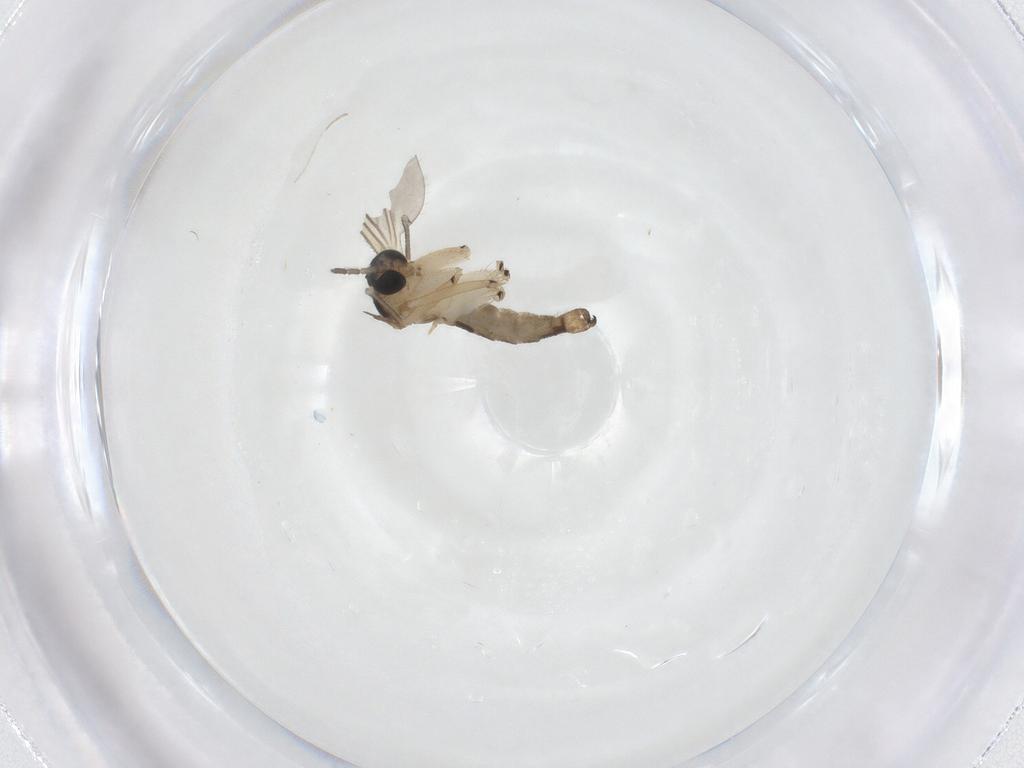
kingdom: Animalia
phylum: Arthropoda
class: Insecta
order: Diptera
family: Sciaridae
